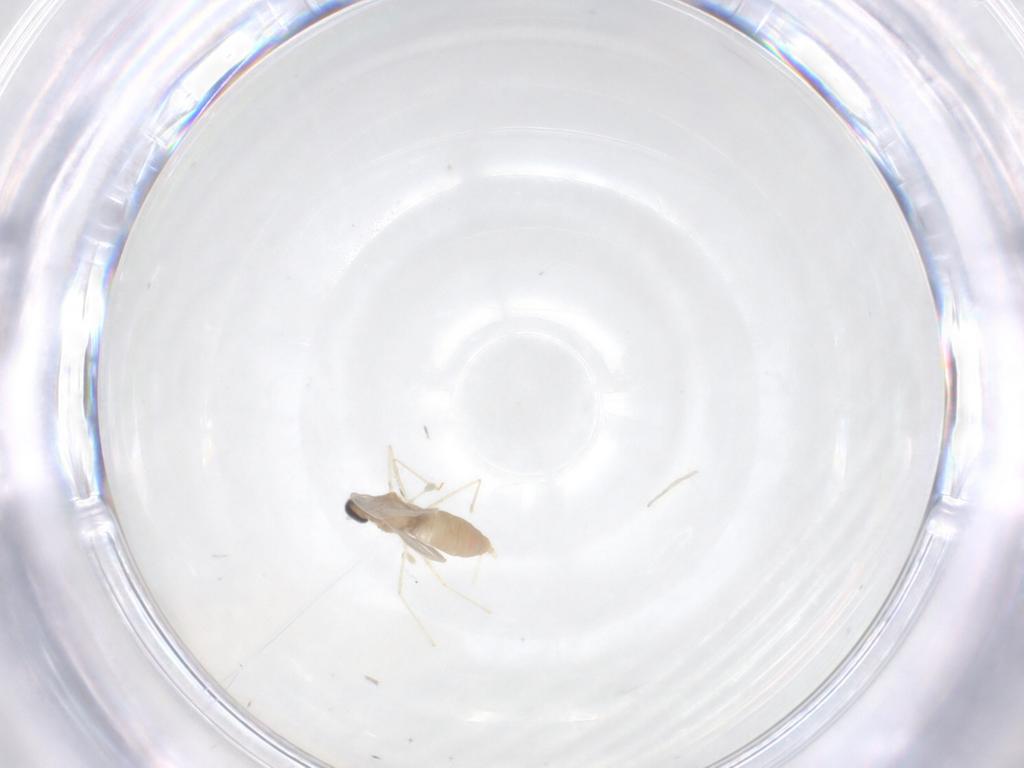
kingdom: Animalia
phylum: Arthropoda
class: Insecta
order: Diptera
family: Cecidomyiidae
